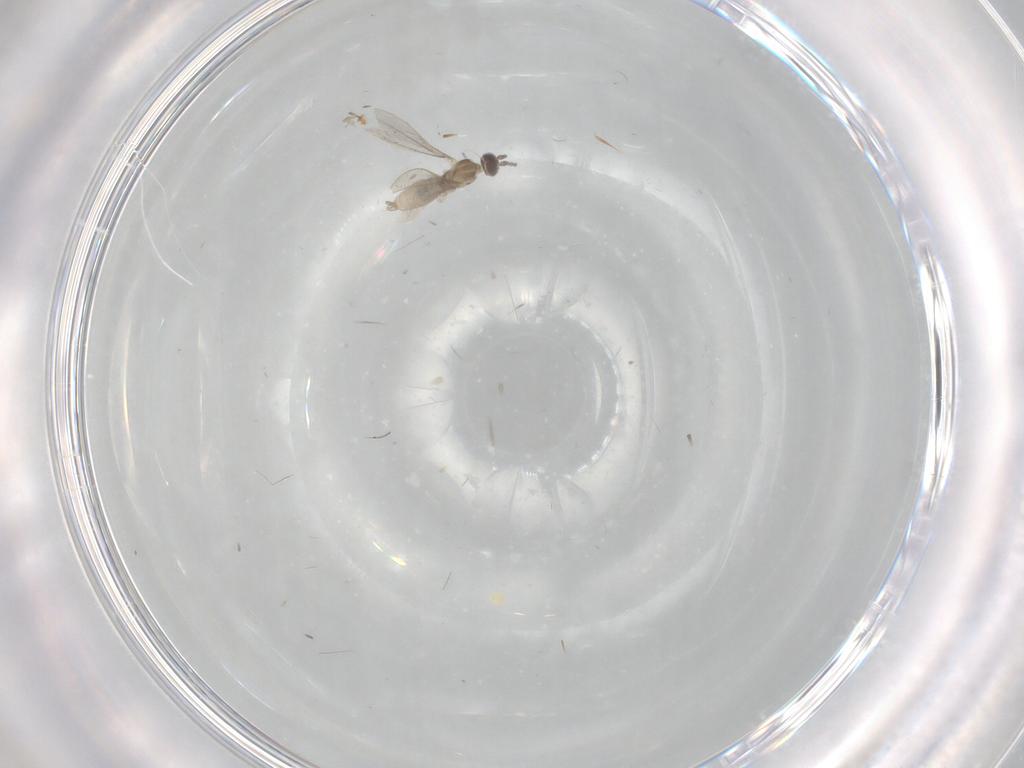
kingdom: Animalia
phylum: Arthropoda
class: Insecta
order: Diptera
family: Cecidomyiidae
